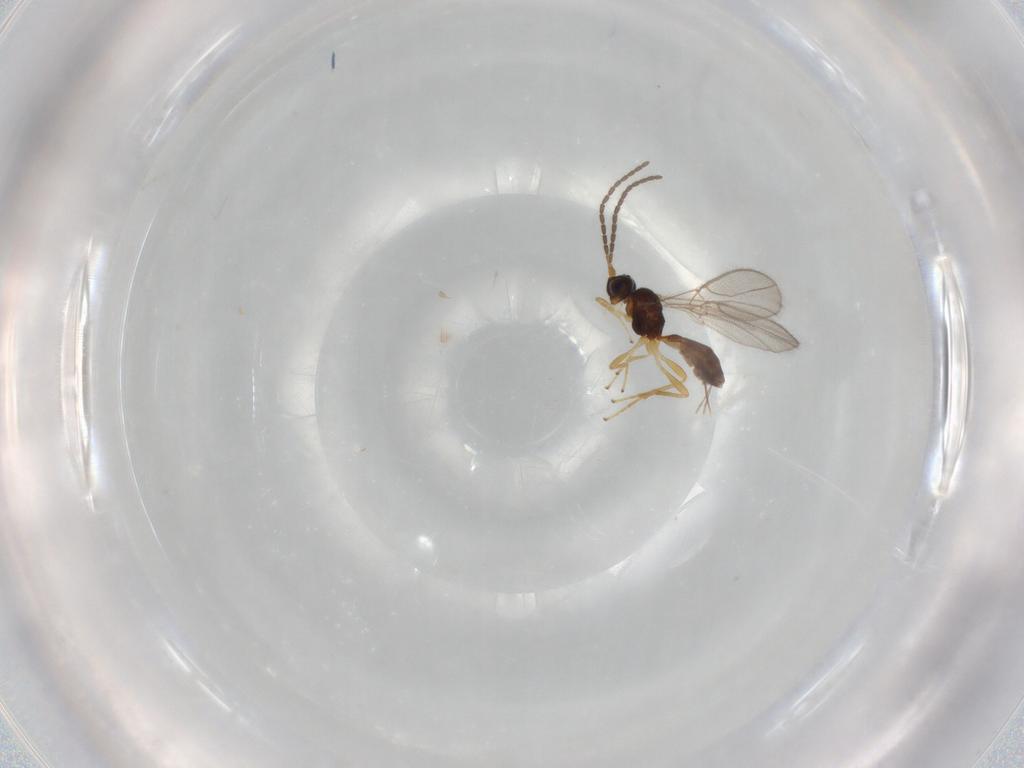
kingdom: Animalia
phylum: Arthropoda
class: Insecta
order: Hymenoptera
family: Braconidae
